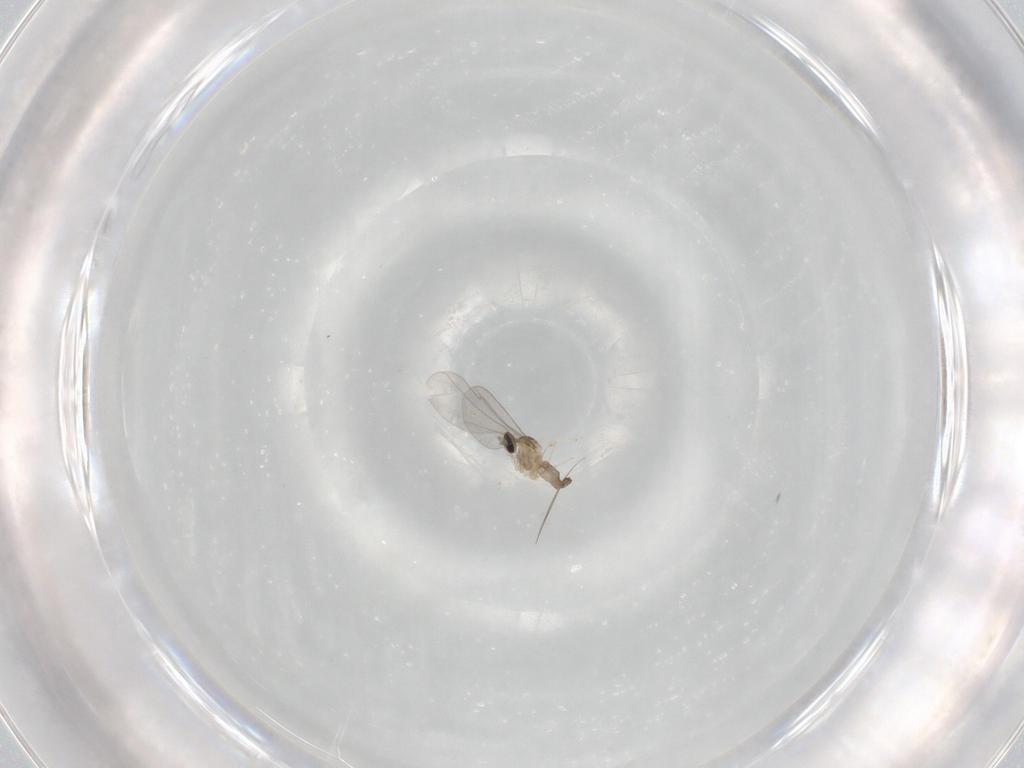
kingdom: Animalia
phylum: Arthropoda
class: Insecta
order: Diptera
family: Cecidomyiidae
